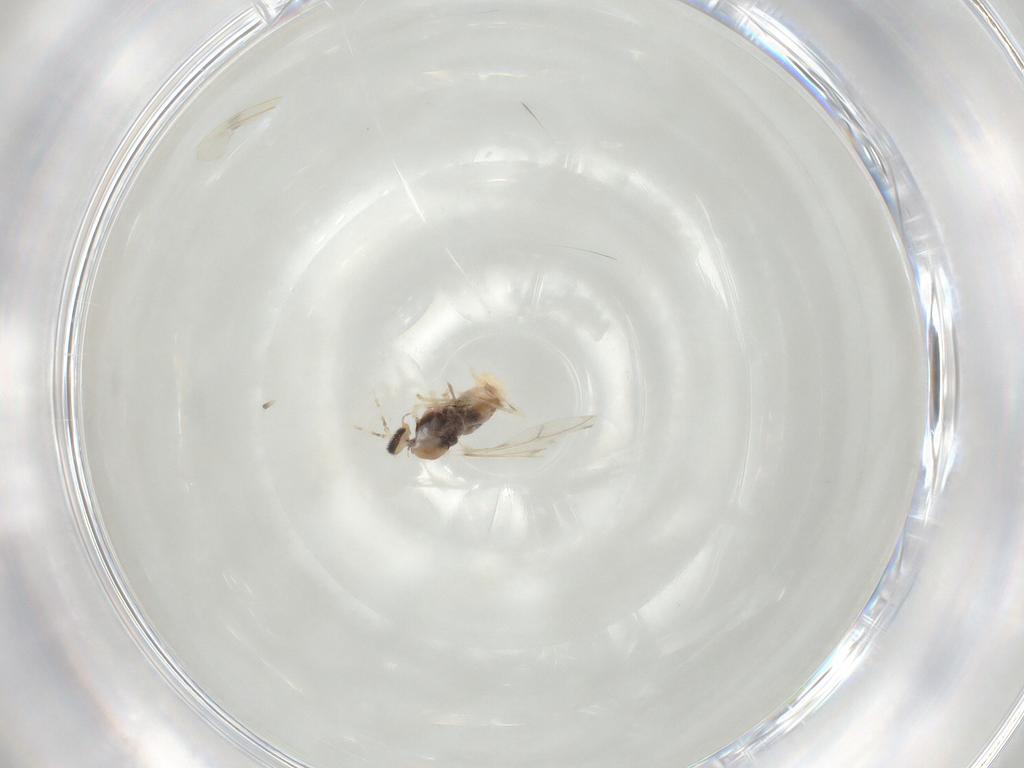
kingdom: Animalia
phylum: Arthropoda
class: Insecta
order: Diptera
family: Cecidomyiidae
